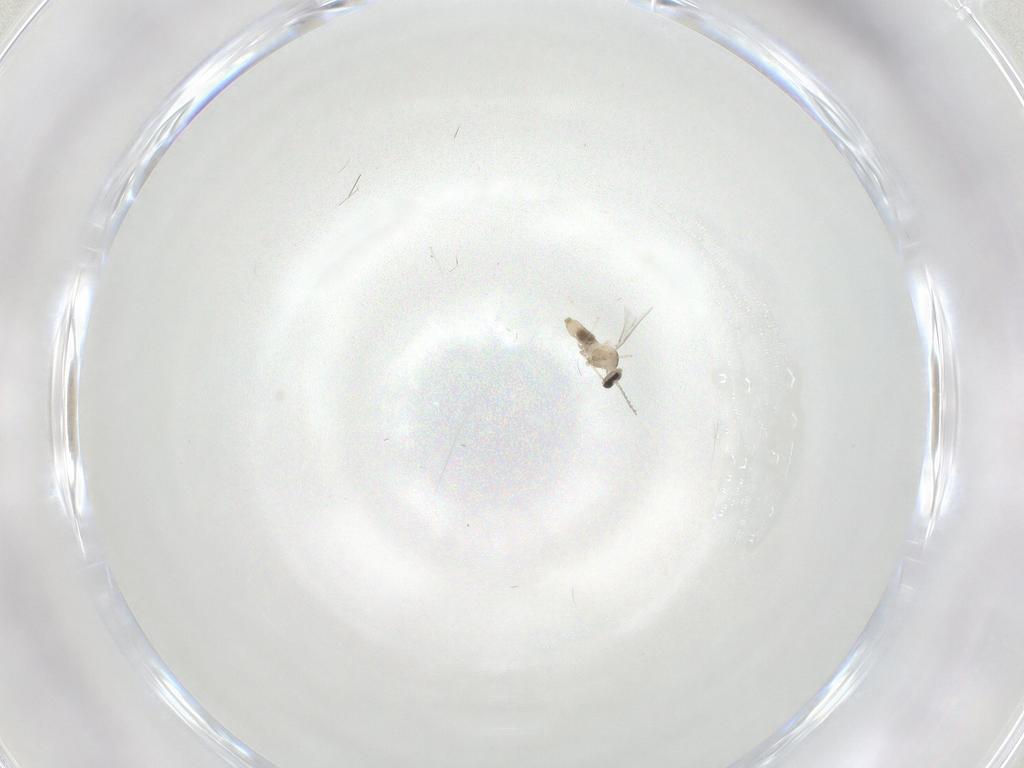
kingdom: Animalia
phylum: Arthropoda
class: Insecta
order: Diptera
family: Cecidomyiidae
